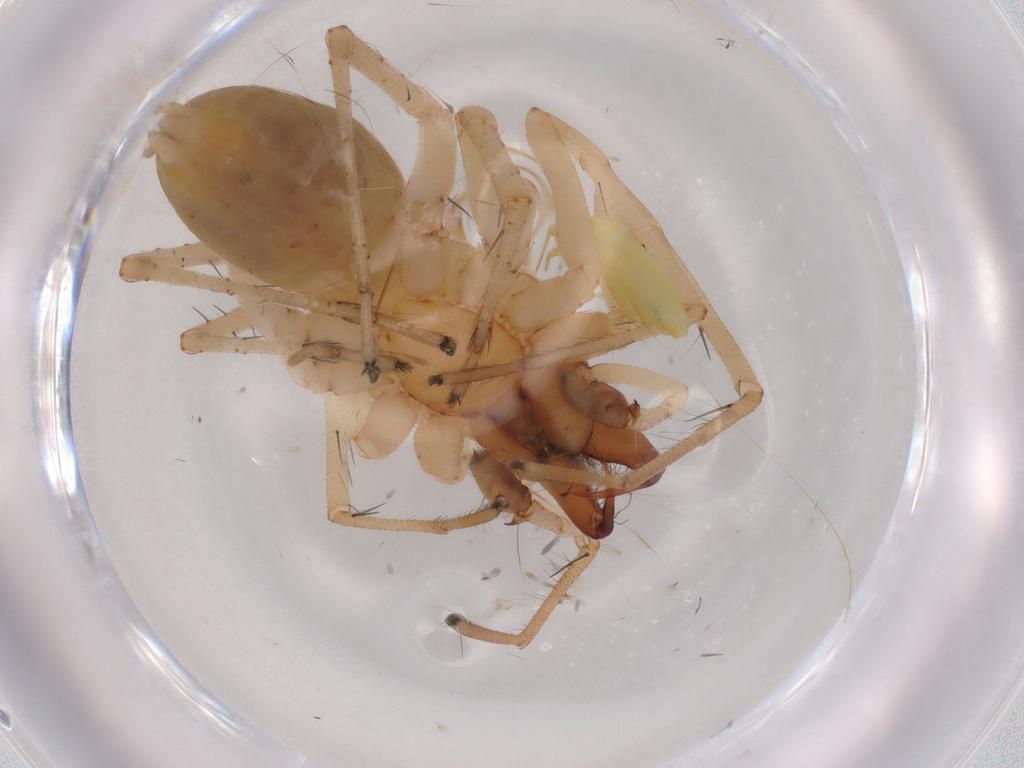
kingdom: Animalia
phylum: Arthropoda
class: Arachnida
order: Araneae
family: Anyphaenidae
